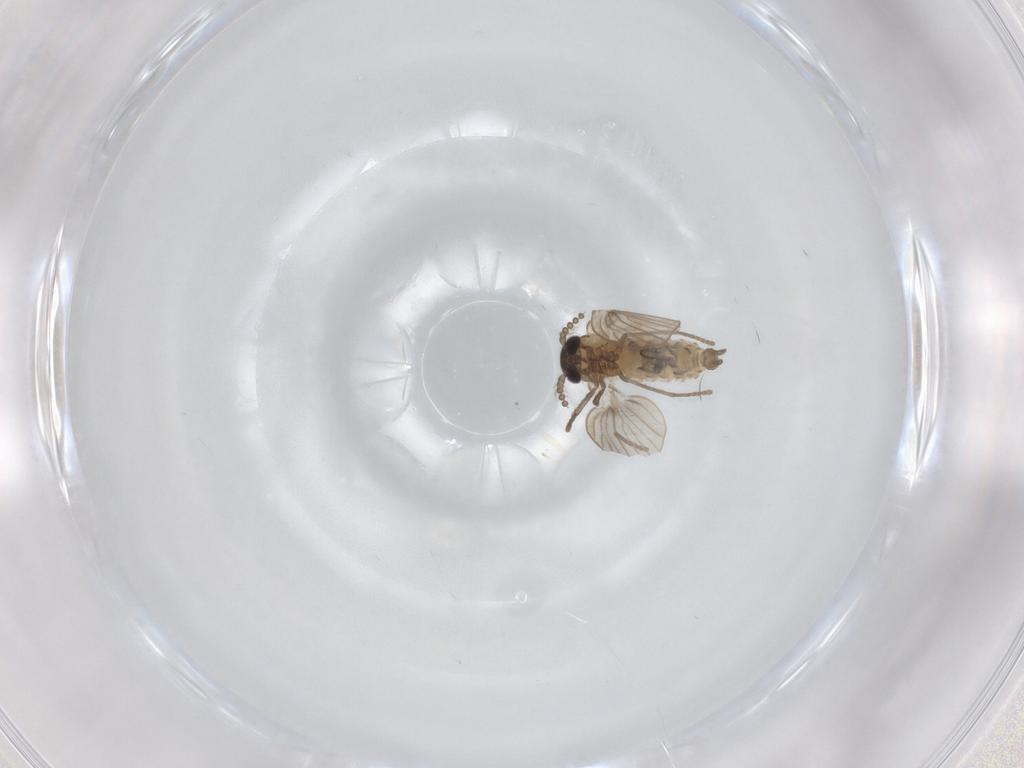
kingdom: Animalia
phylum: Arthropoda
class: Insecta
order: Diptera
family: Psychodidae
